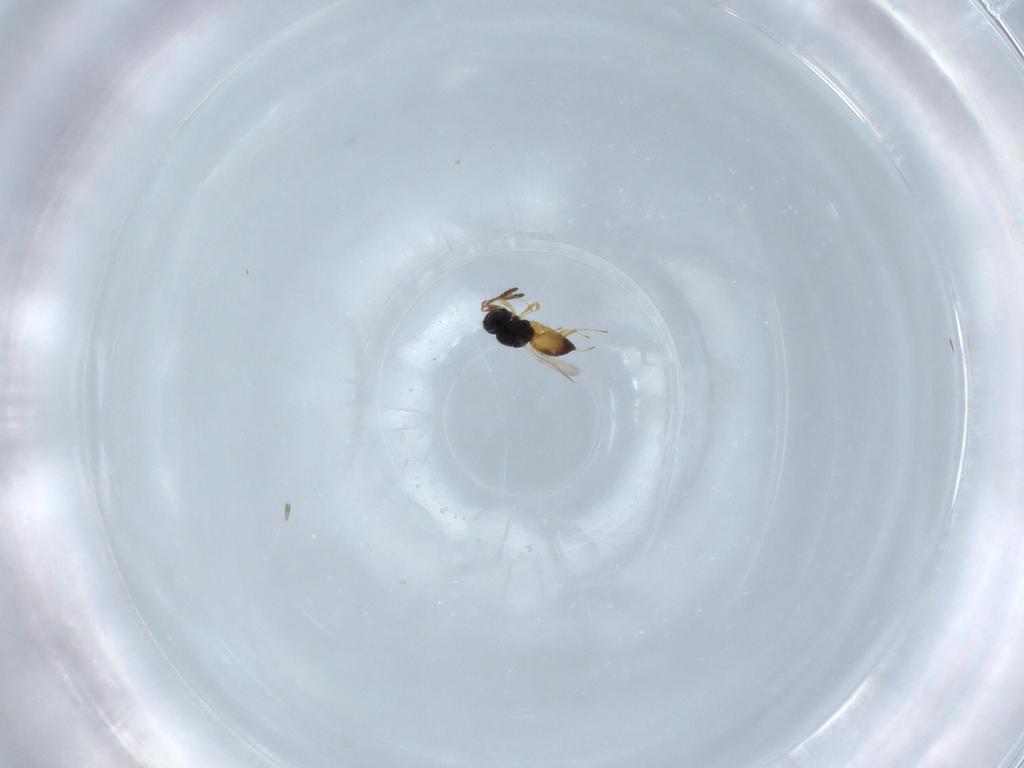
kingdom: Animalia
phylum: Arthropoda
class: Insecta
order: Hymenoptera
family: Scelionidae
